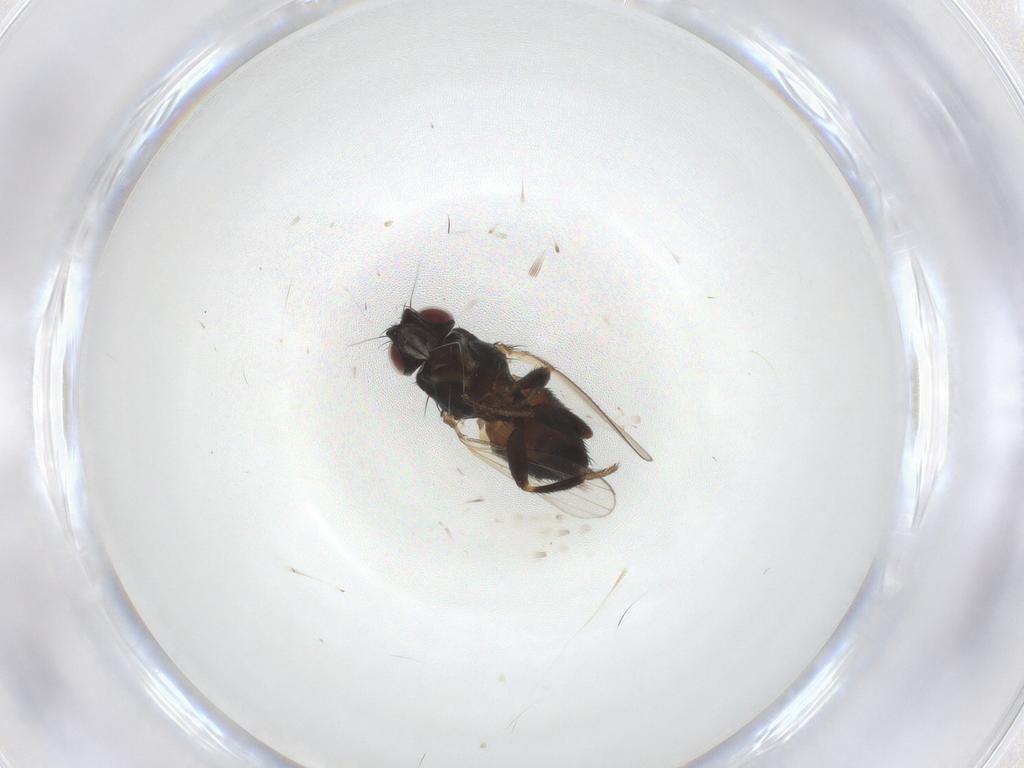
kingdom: Animalia
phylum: Arthropoda
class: Insecta
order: Diptera
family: Milichiidae
